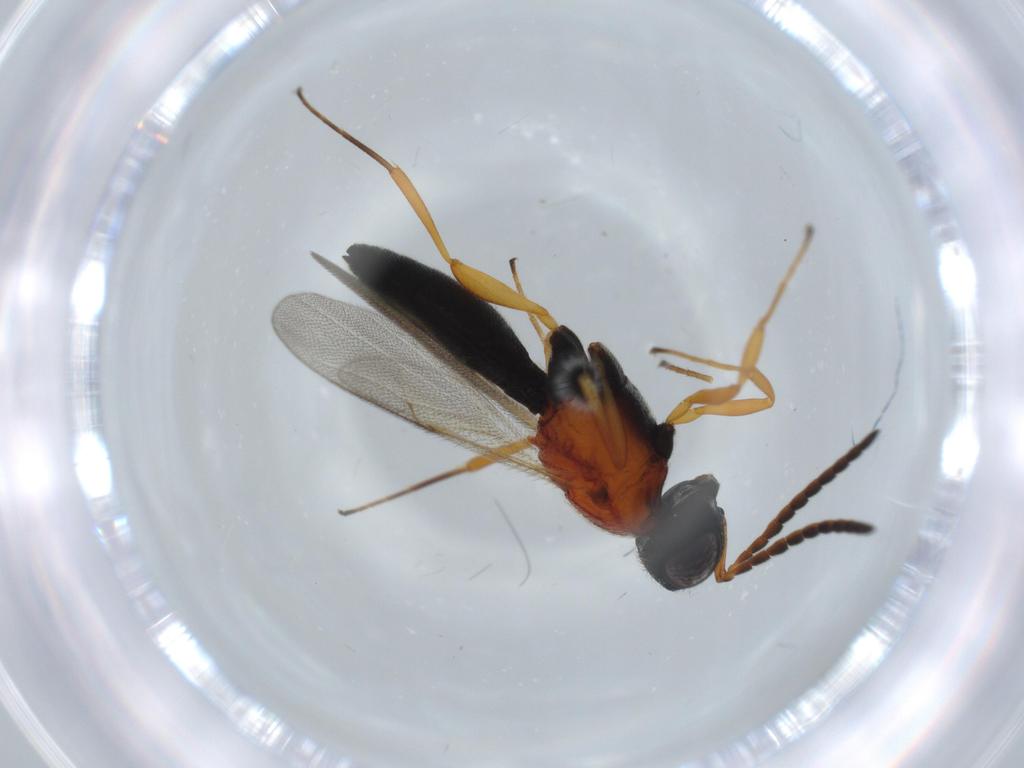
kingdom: Animalia
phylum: Arthropoda
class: Insecta
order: Hymenoptera
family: Scelionidae
